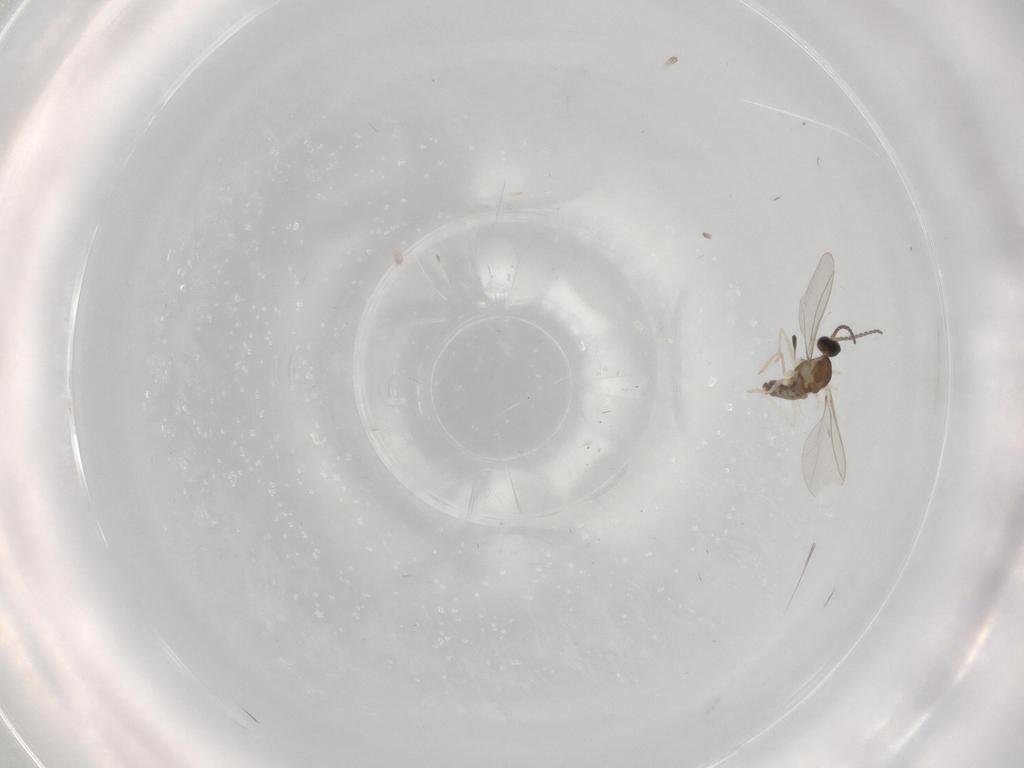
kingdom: Animalia
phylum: Arthropoda
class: Insecta
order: Diptera
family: Cecidomyiidae
